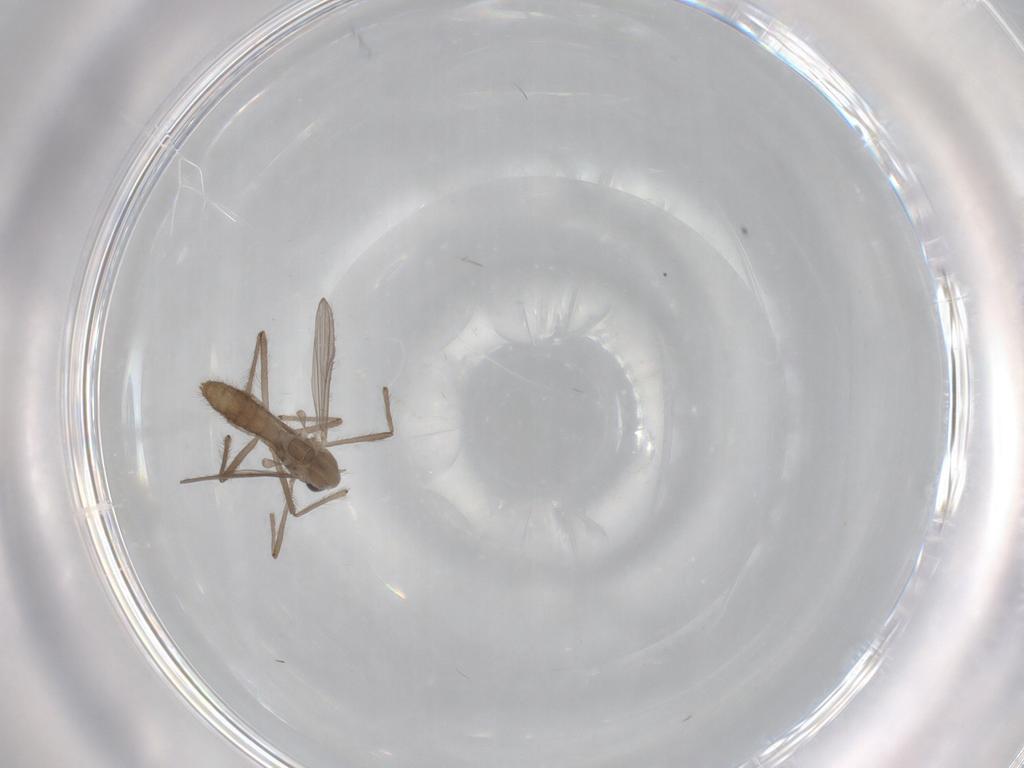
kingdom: Animalia
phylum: Arthropoda
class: Insecta
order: Diptera
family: Chironomidae
